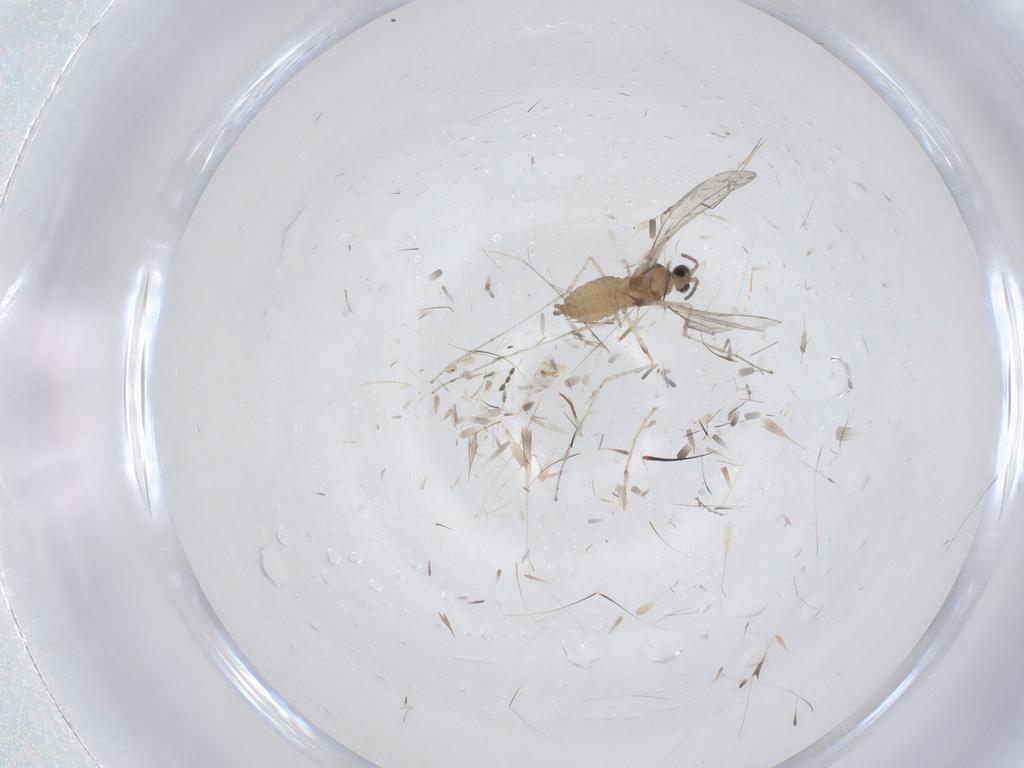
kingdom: Animalia
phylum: Arthropoda
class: Insecta
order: Diptera
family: Cecidomyiidae
